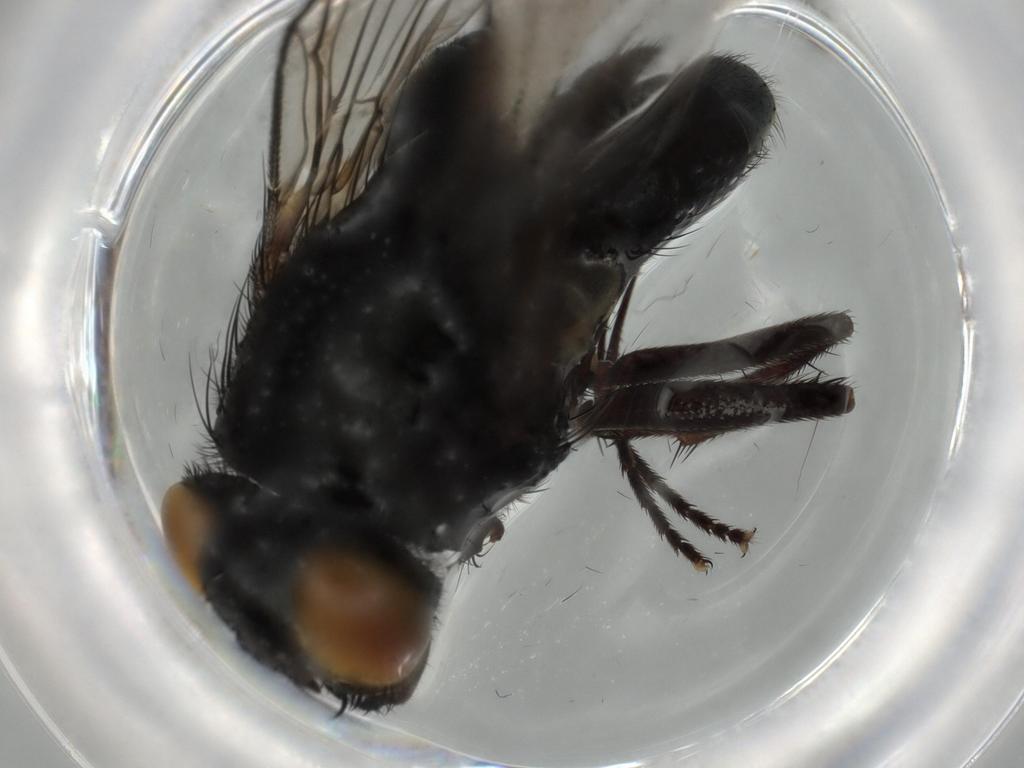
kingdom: Animalia
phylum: Arthropoda
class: Insecta
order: Diptera
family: Muscidae
